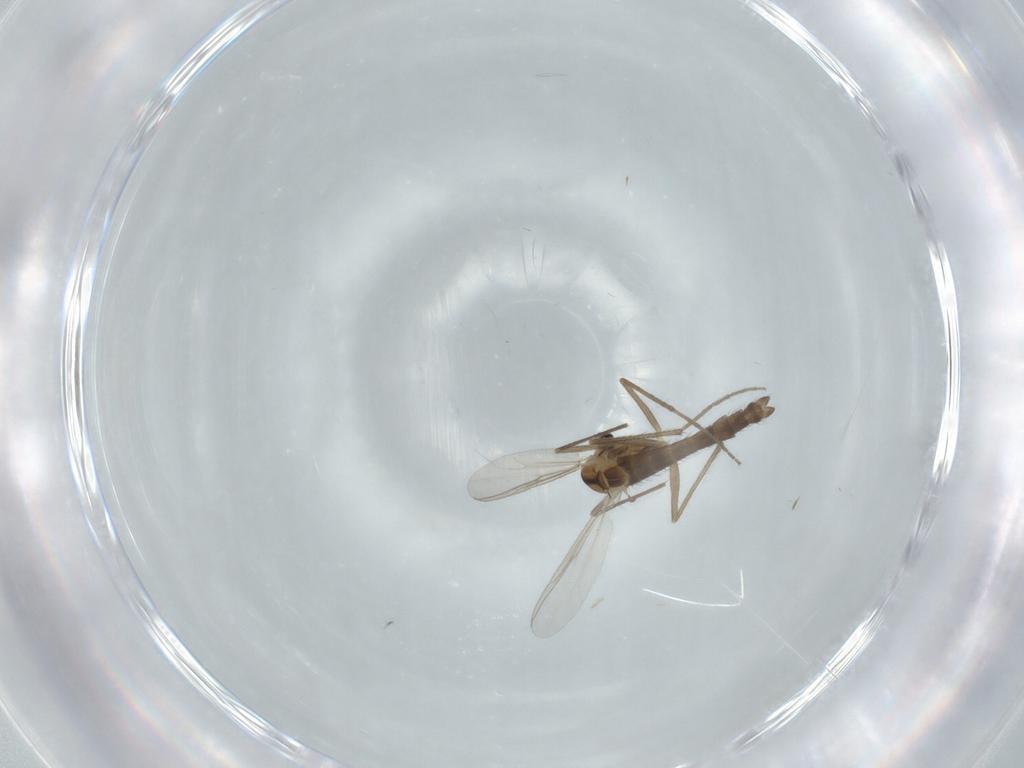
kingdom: Animalia
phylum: Arthropoda
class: Insecta
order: Diptera
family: Chironomidae
